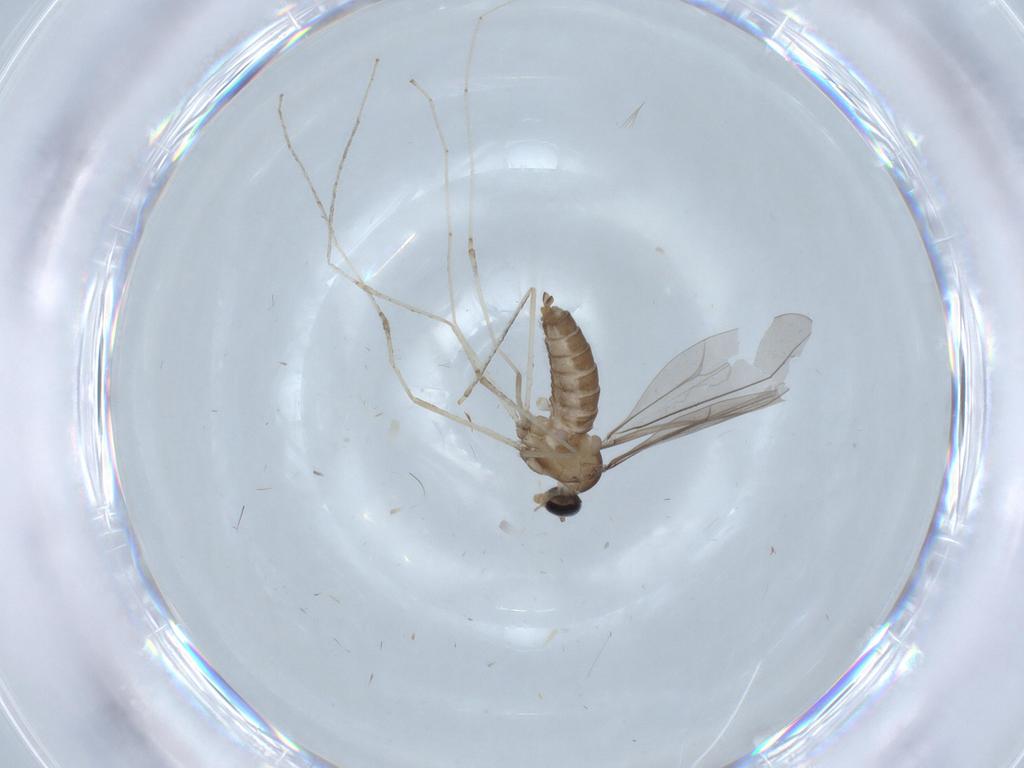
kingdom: Animalia
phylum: Arthropoda
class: Insecta
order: Diptera
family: Cecidomyiidae
